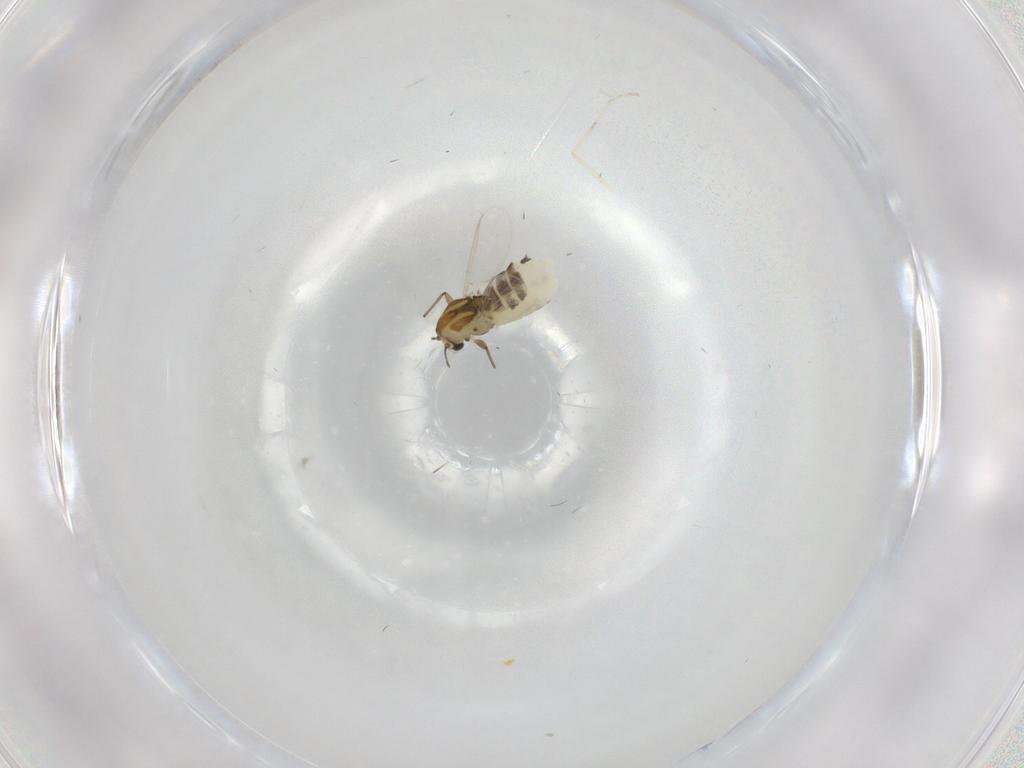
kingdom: Animalia
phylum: Arthropoda
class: Insecta
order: Diptera
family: Chironomidae
